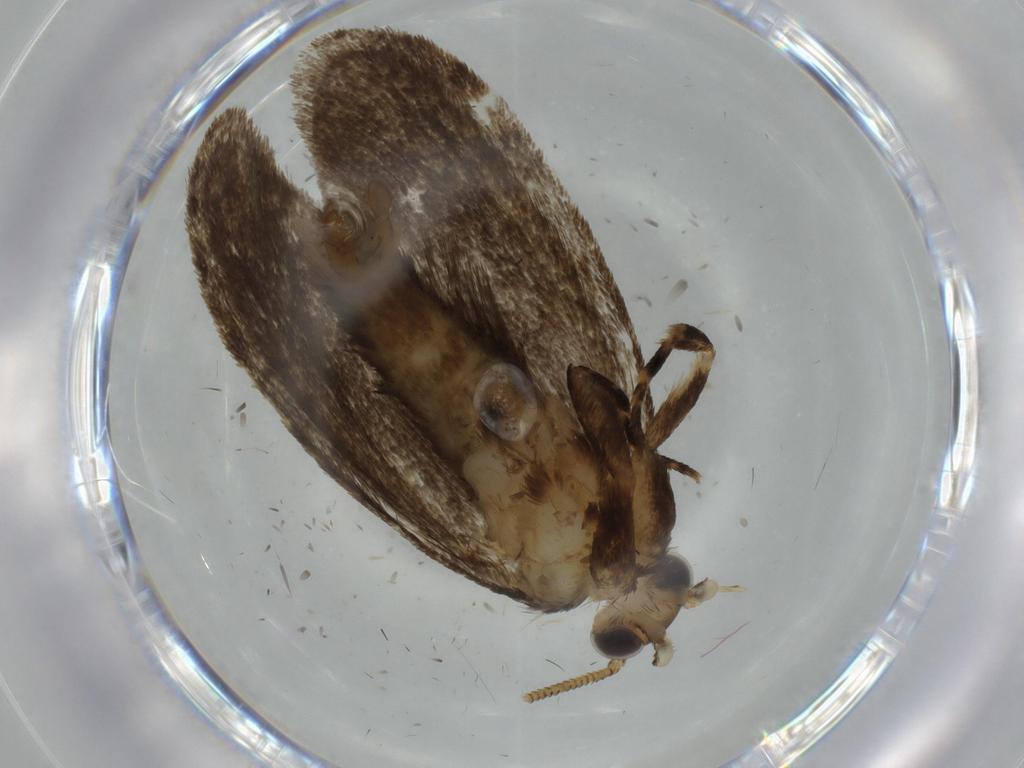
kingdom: Animalia
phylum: Arthropoda
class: Insecta
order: Lepidoptera
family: Tineidae
